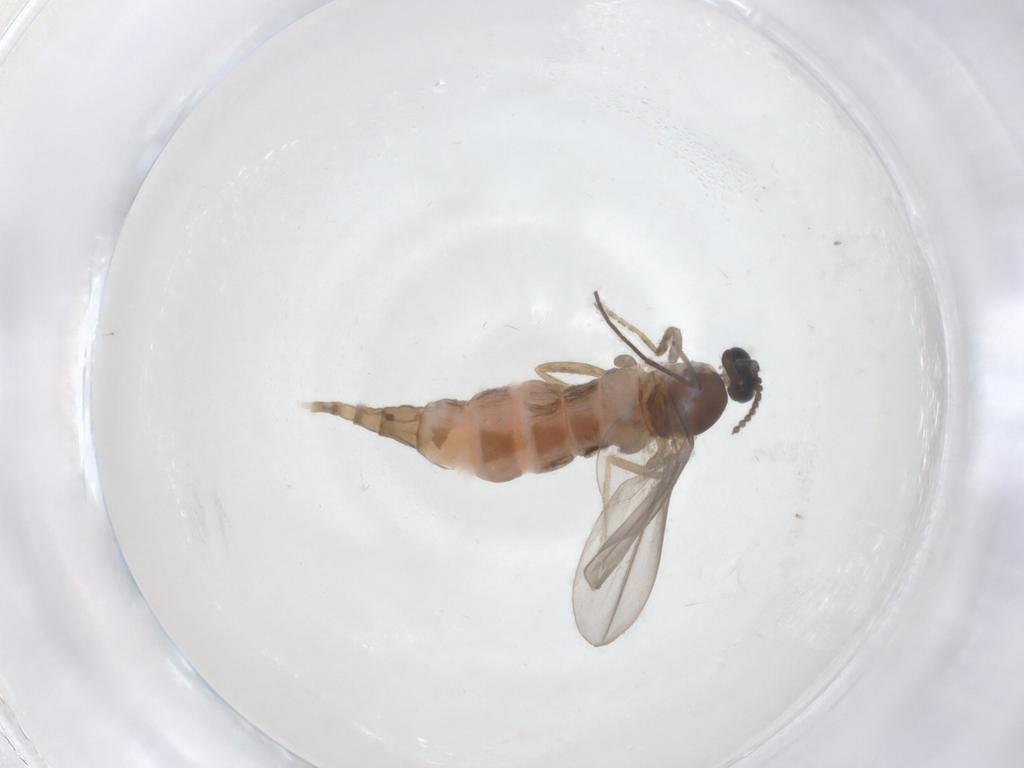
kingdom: Animalia
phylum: Arthropoda
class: Insecta
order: Diptera
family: Cecidomyiidae
